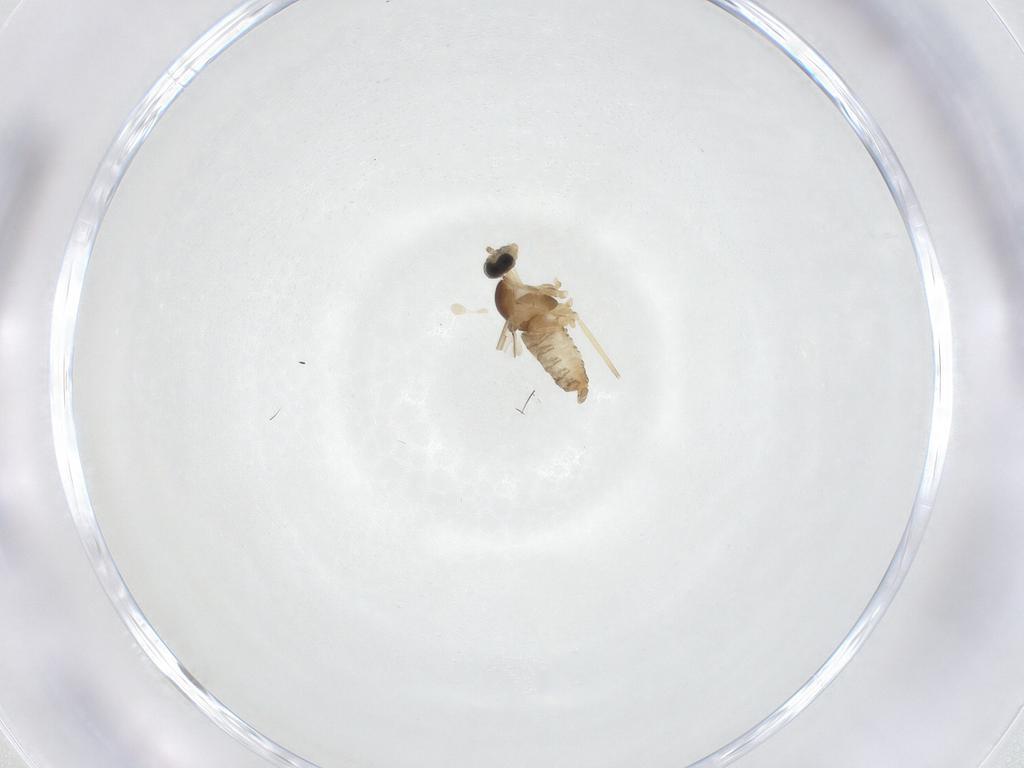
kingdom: Animalia
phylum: Arthropoda
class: Insecta
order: Diptera
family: Cecidomyiidae
